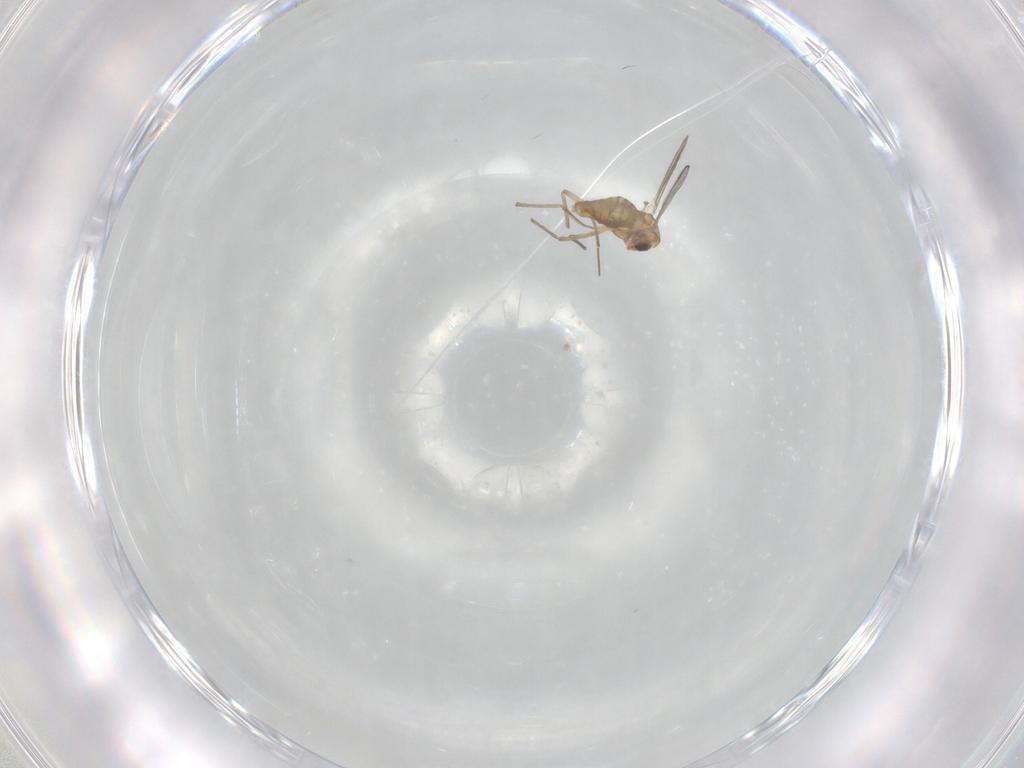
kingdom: Animalia
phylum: Arthropoda
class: Insecta
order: Diptera
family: Chironomidae
